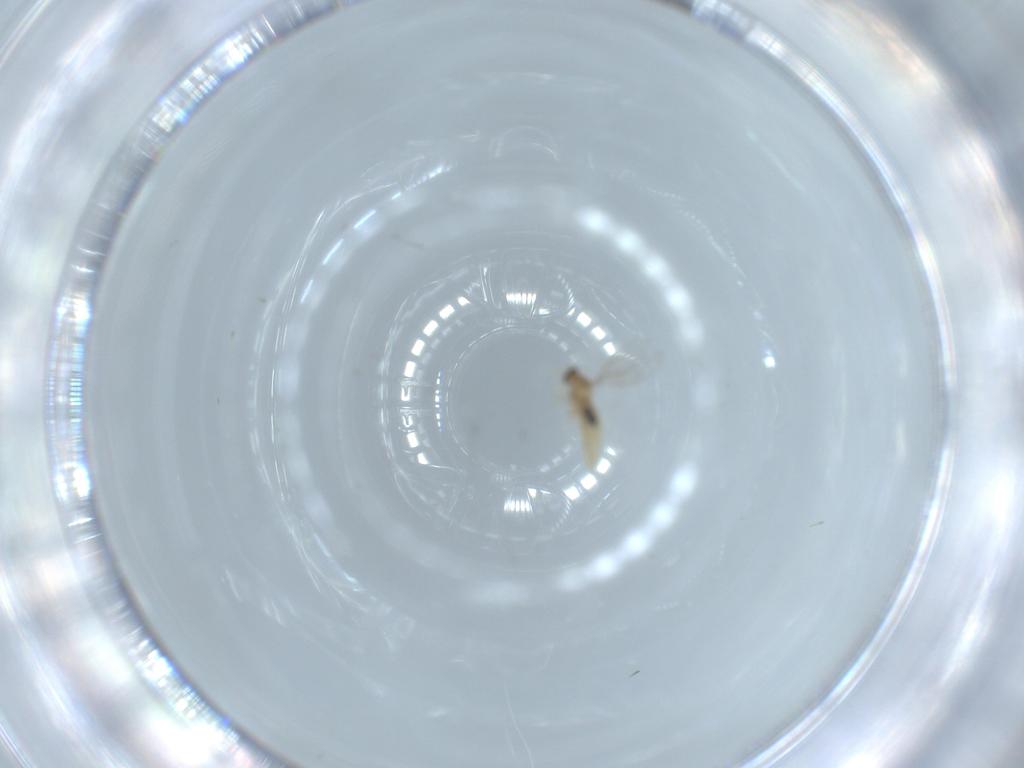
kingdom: Animalia
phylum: Arthropoda
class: Insecta
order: Diptera
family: Cecidomyiidae
